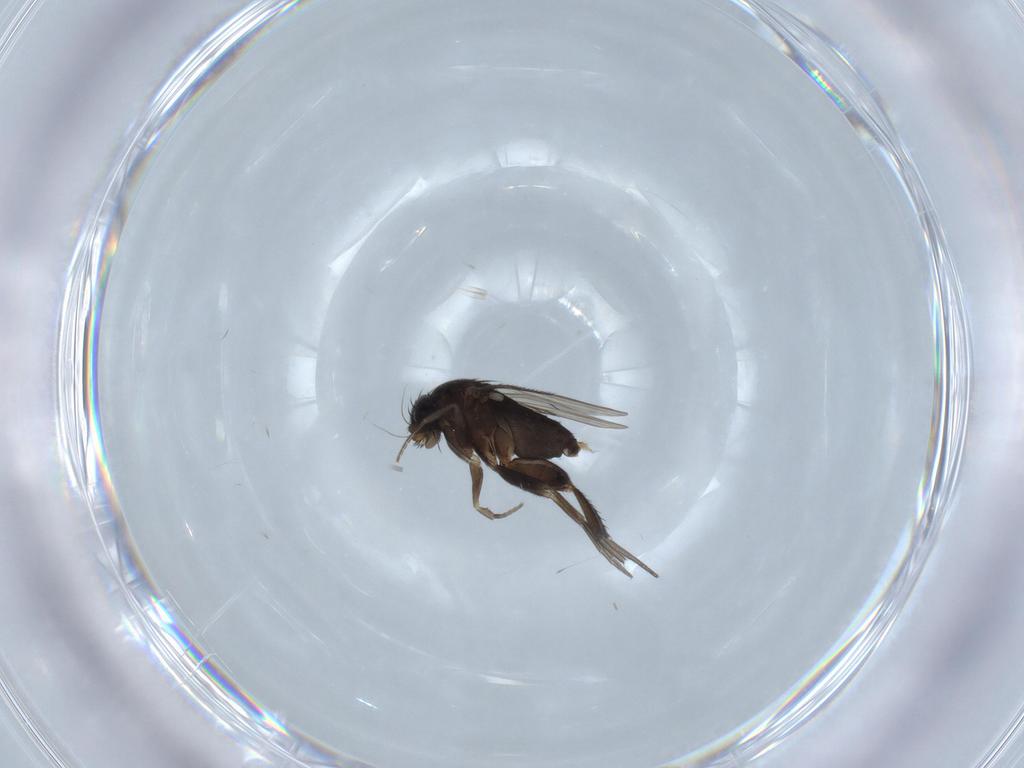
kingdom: Animalia
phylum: Arthropoda
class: Insecta
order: Diptera
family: Phoridae
